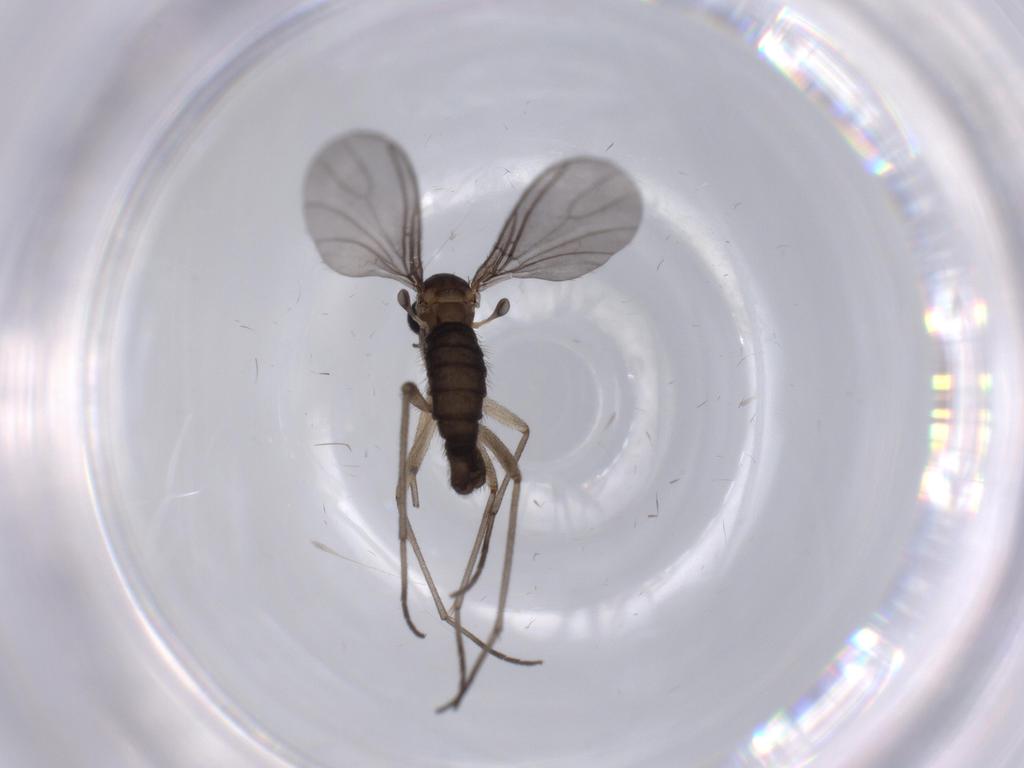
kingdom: Animalia
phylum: Arthropoda
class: Insecta
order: Diptera
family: Sciaridae
